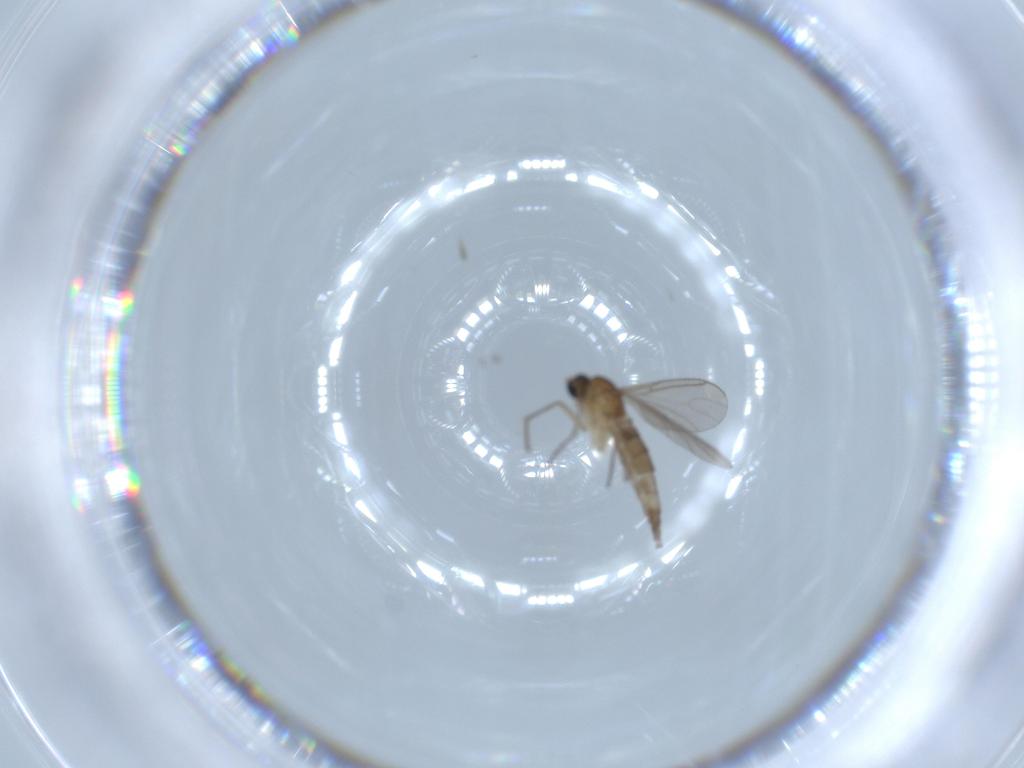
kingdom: Animalia
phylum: Arthropoda
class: Insecta
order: Diptera
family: Sciaridae
